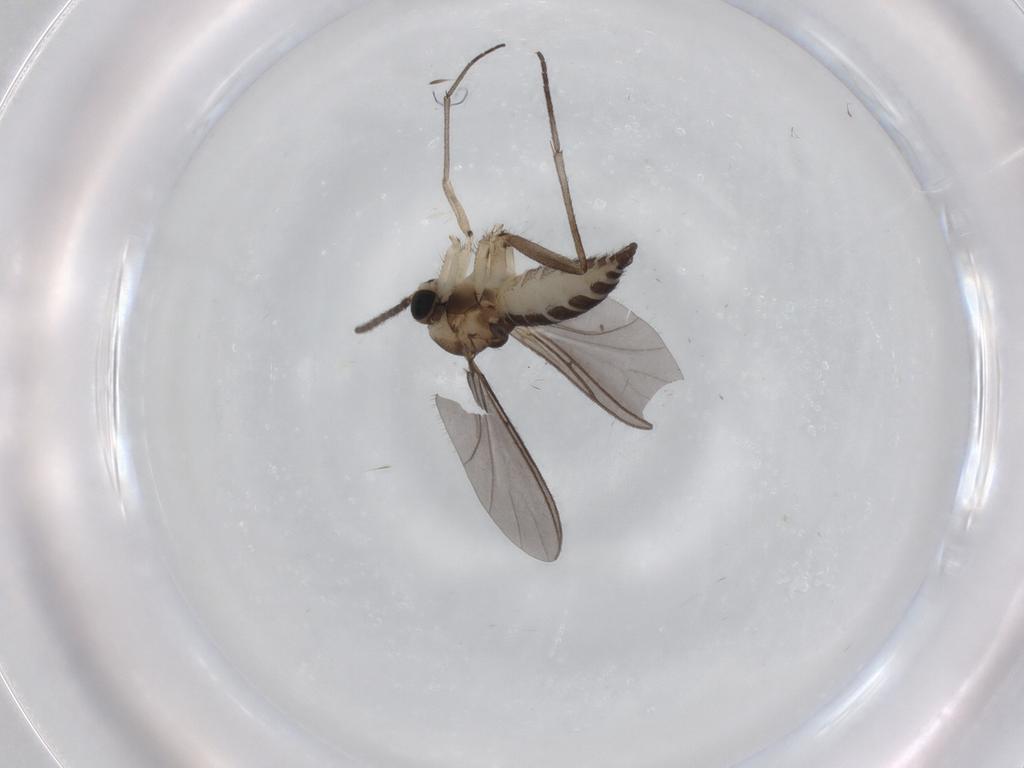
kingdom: Animalia
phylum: Arthropoda
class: Insecta
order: Diptera
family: Sciaridae
